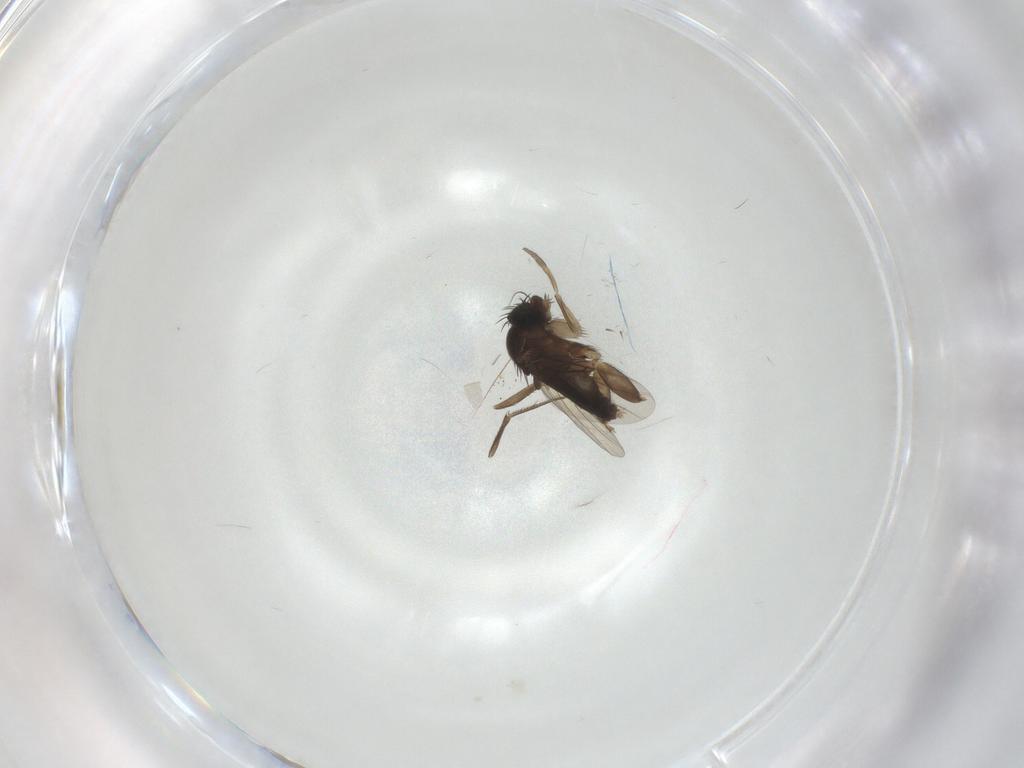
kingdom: Animalia
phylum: Arthropoda
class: Insecta
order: Diptera
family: Phoridae
